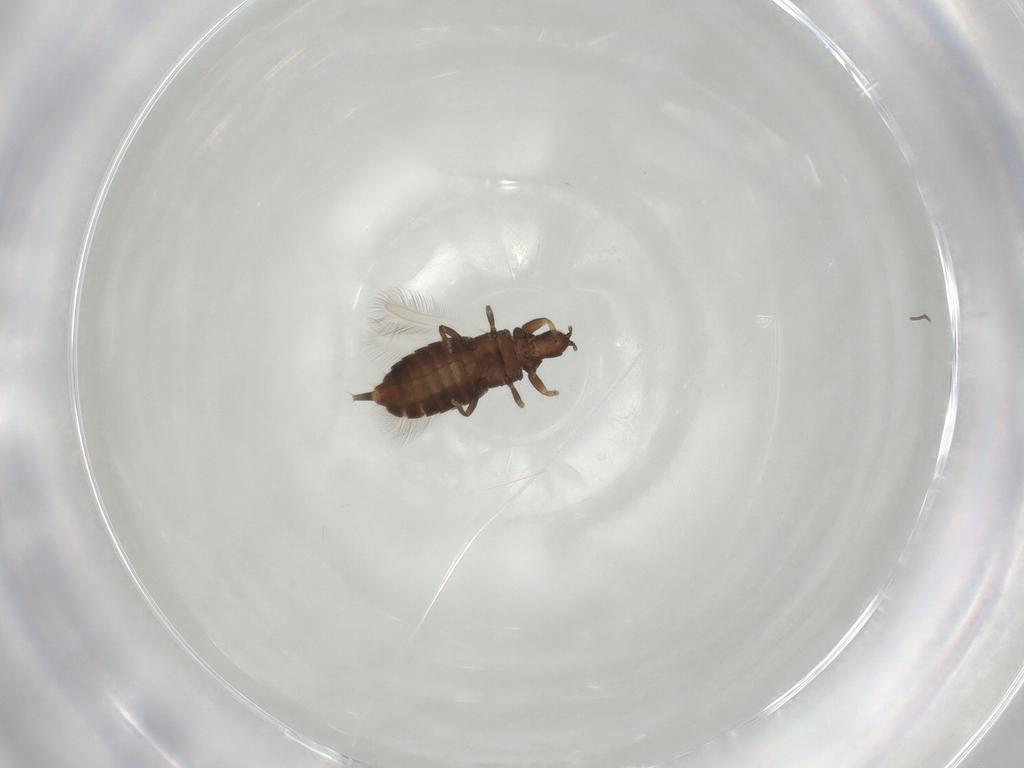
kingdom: Animalia
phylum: Arthropoda
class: Insecta
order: Thysanoptera
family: Phlaeothripidae
